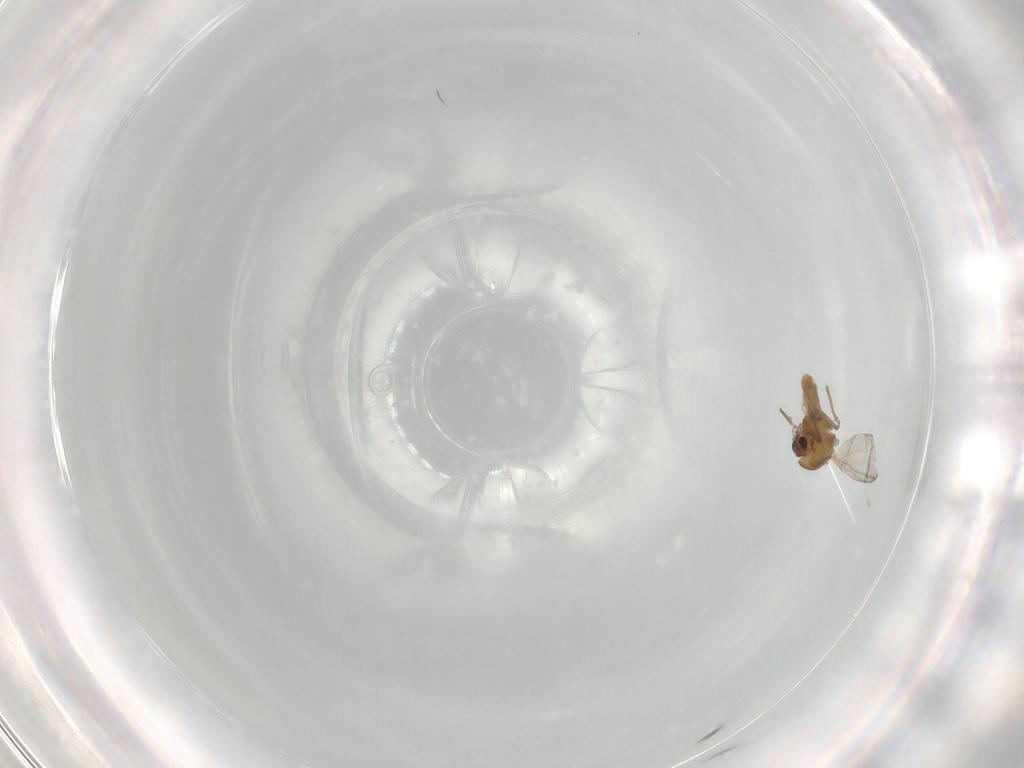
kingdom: Animalia
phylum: Arthropoda
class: Insecta
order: Diptera
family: Chironomidae
